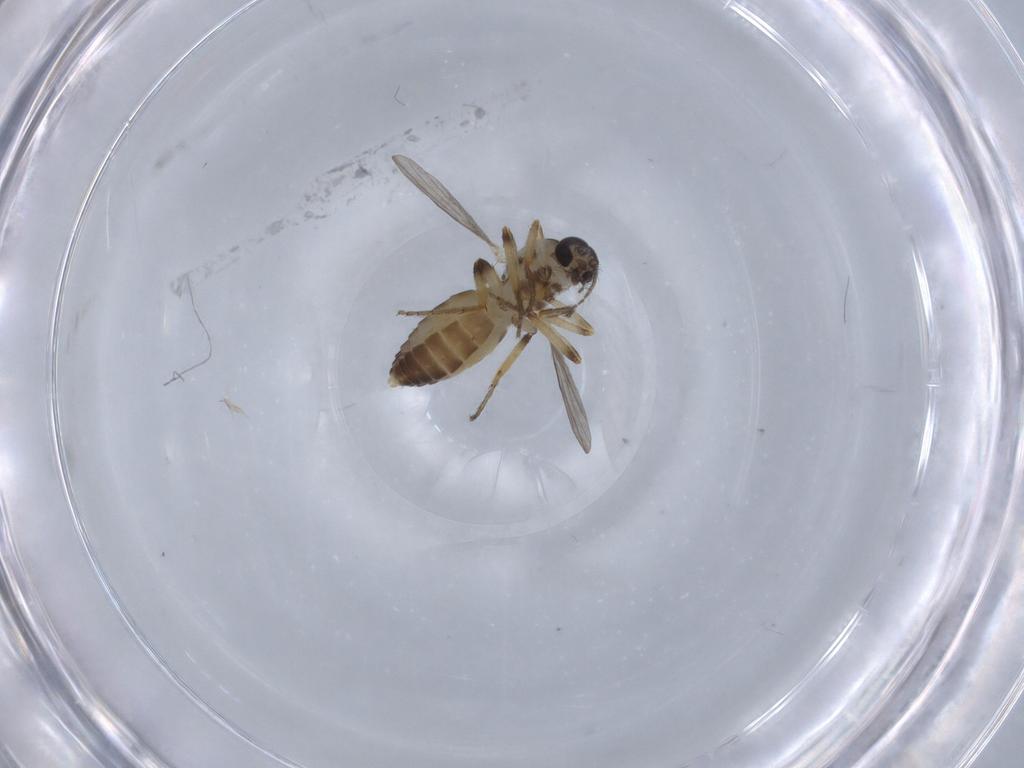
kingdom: Animalia
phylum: Arthropoda
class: Insecta
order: Diptera
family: Ceratopogonidae
